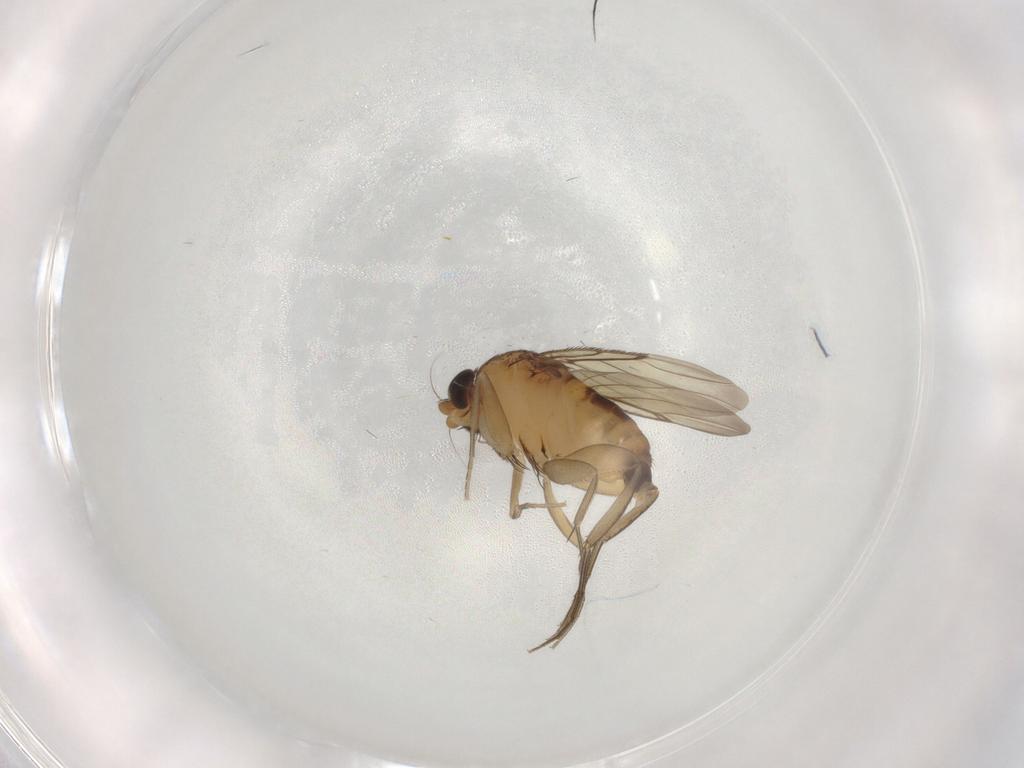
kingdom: Animalia
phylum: Arthropoda
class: Insecta
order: Diptera
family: Phoridae
